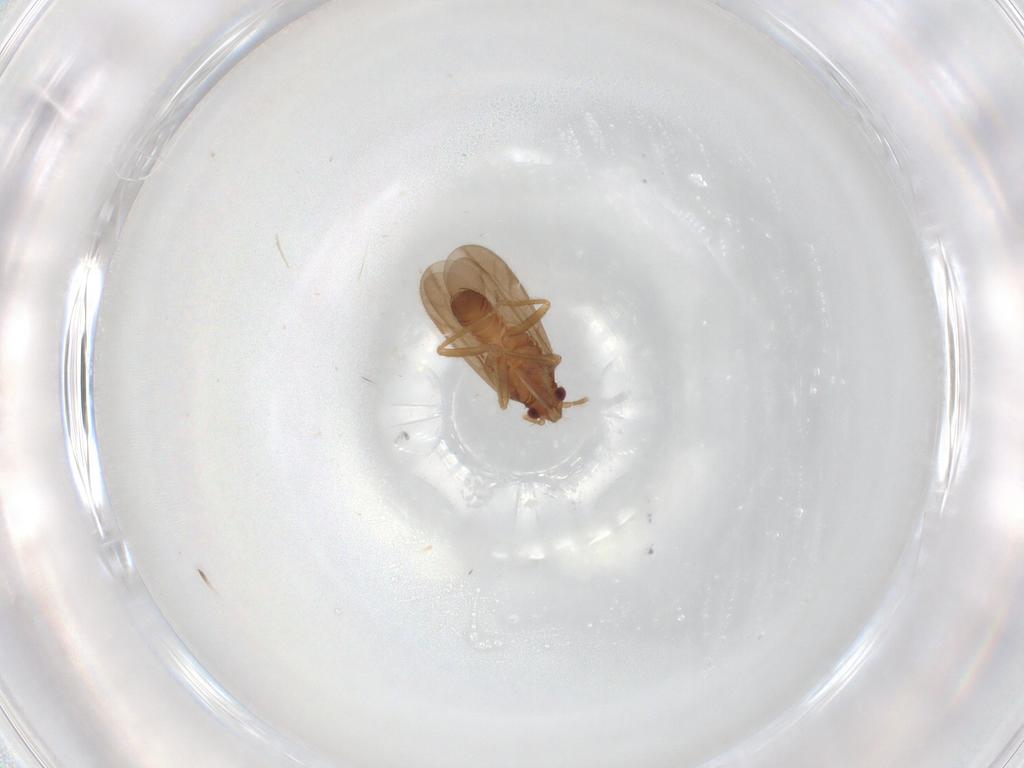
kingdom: Animalia
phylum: Arthropoda
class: Insecta
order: Hemiptera
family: Ceratocombidae
